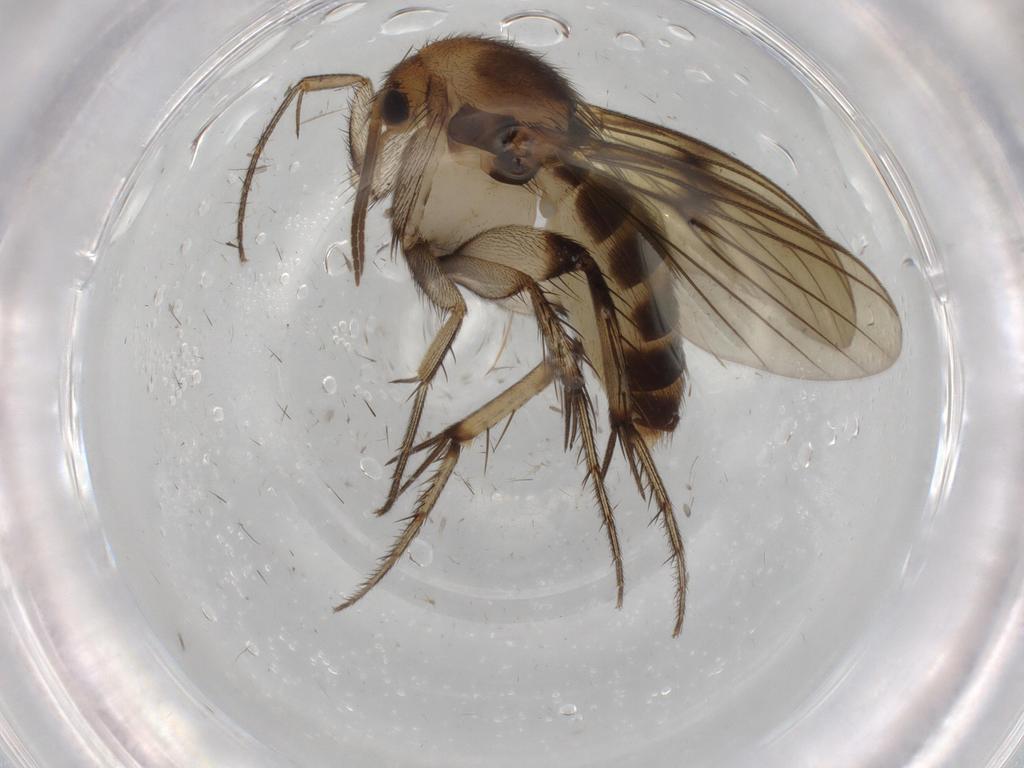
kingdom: Animalia
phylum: Arthropoda
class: Insecta
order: Diptera
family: Mycetophilidae
